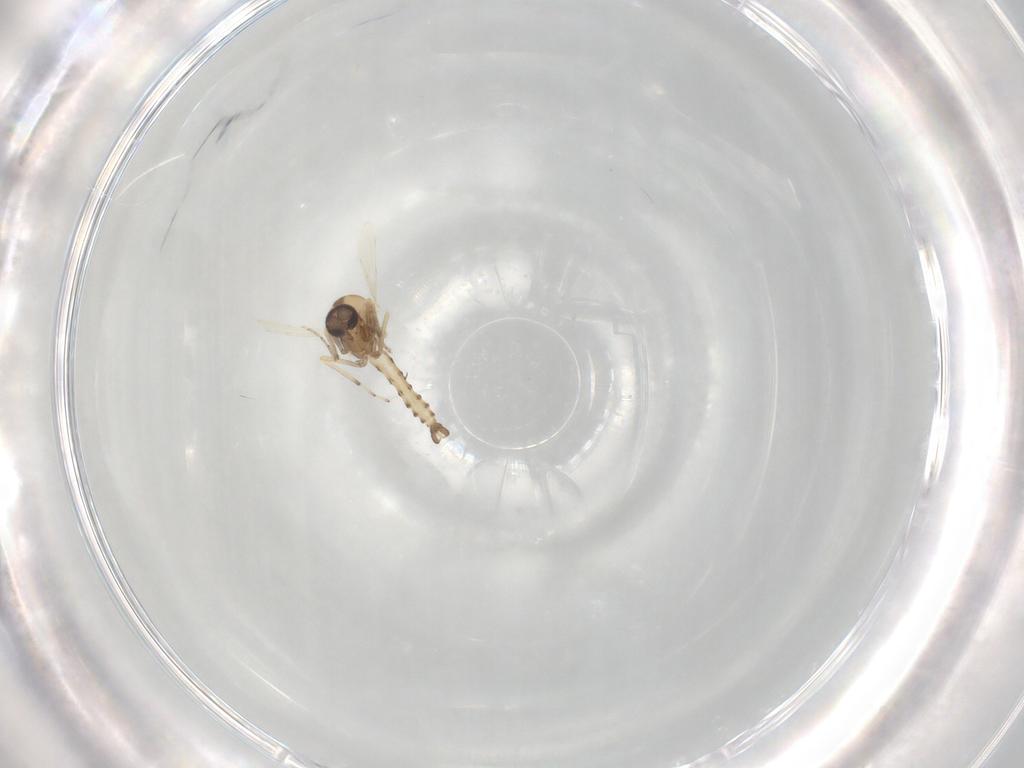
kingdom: Animalia
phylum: Arthropoda
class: Insecta
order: Diptera
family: Ceratopogonidae
